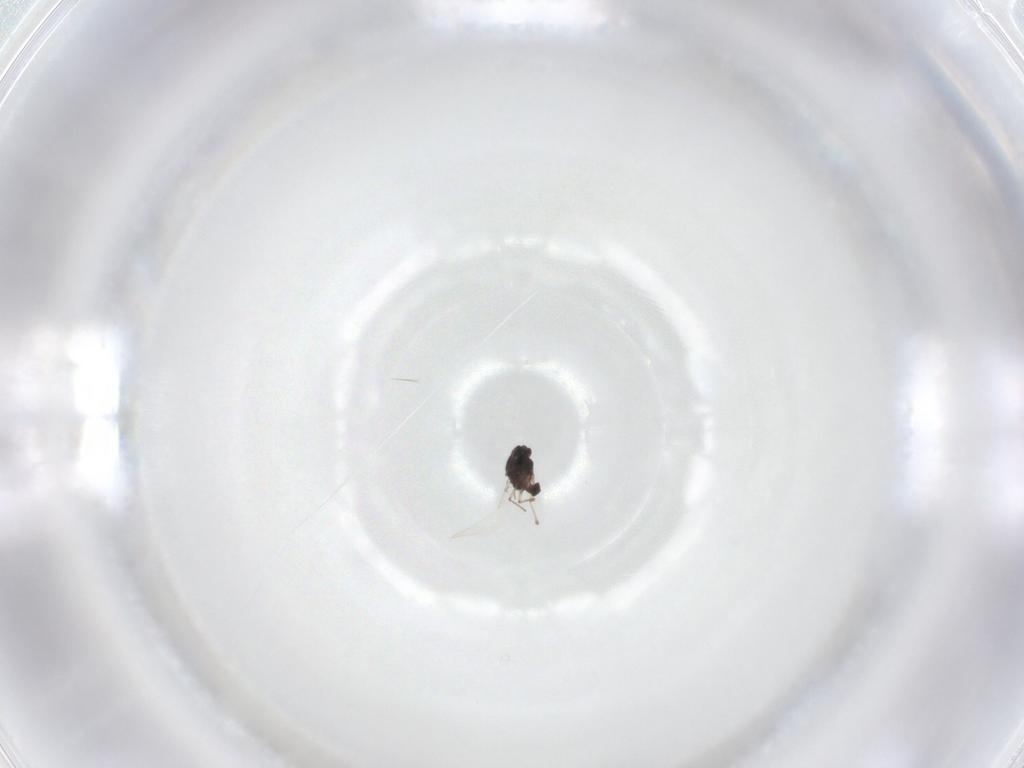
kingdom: Animalia
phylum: Arthropoda
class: Insecta
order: Diptera
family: Chironomidae
